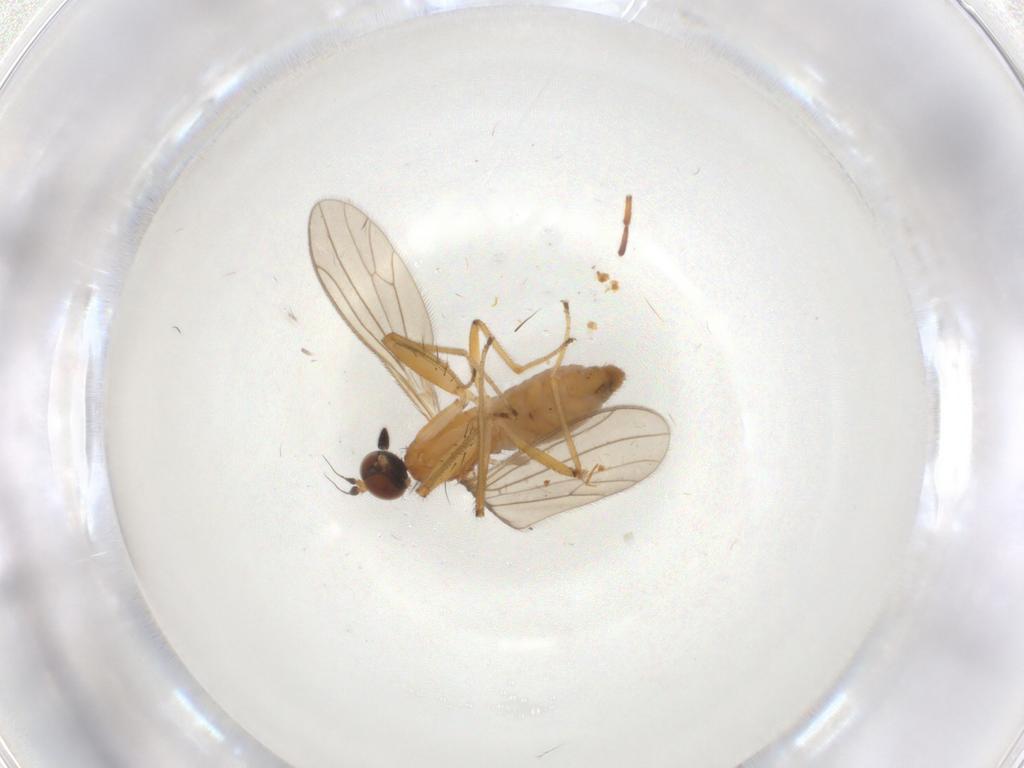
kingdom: Animalia
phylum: Arthropoda
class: Insecta
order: Diptera
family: Empididae
